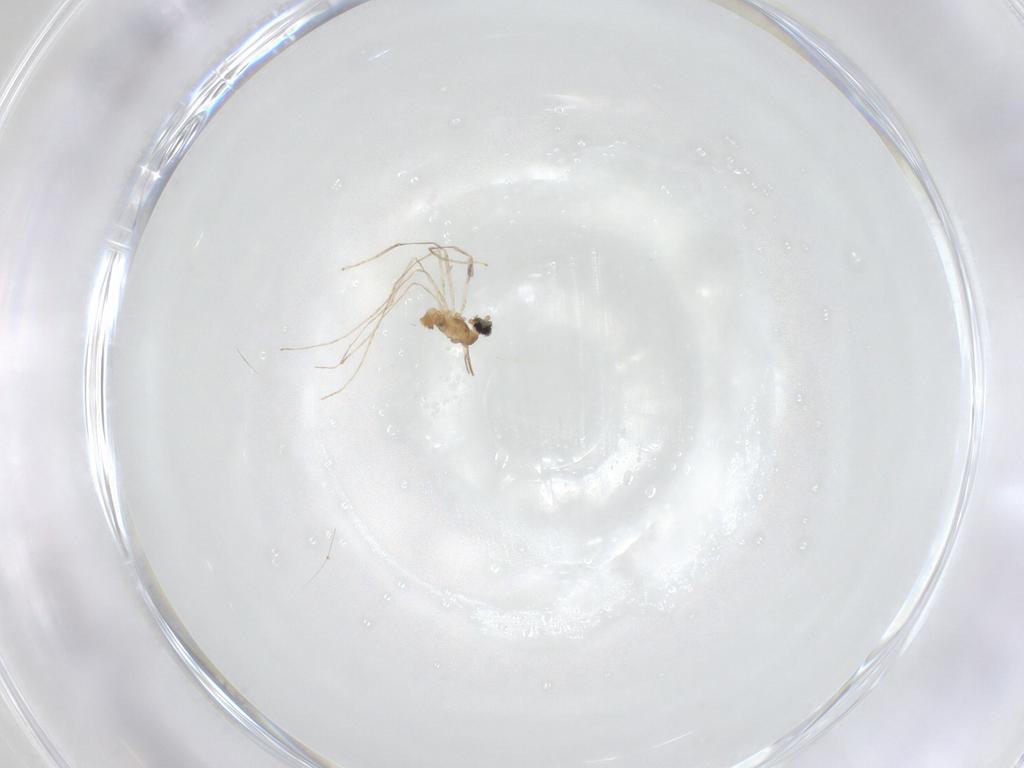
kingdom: Animalia
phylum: Arthropoda
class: Insecta
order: Diptera
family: Cecidomyiidae
